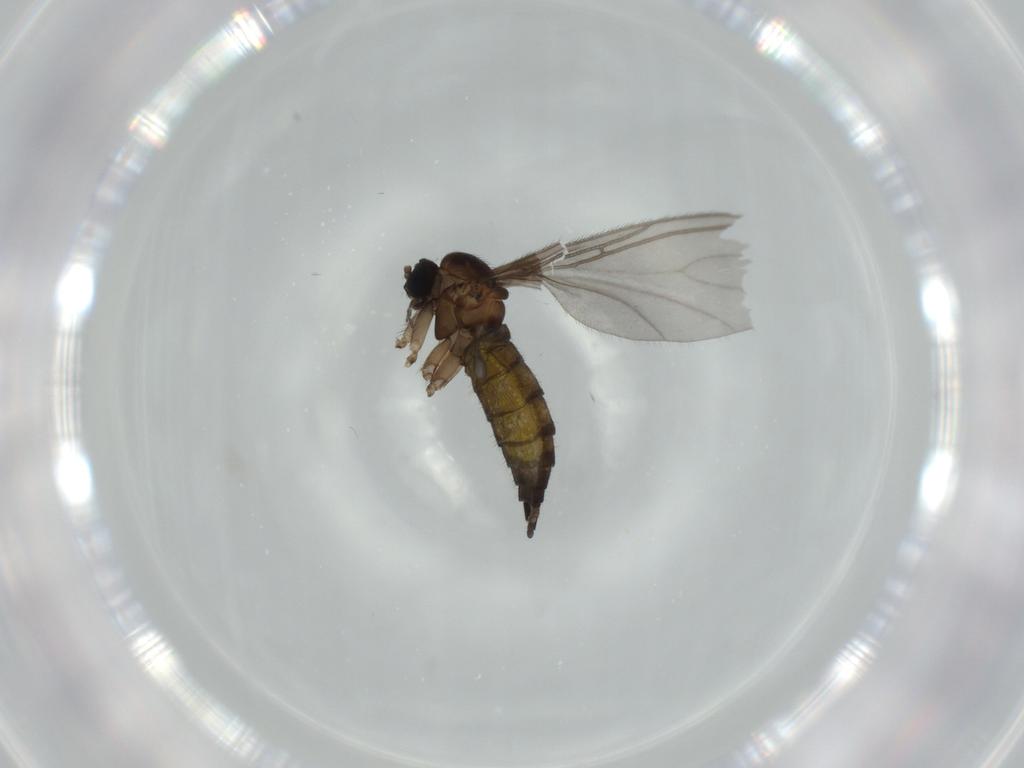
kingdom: Animalia
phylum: Arthropoda
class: Insecta
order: Diptera
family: Sciaridae
